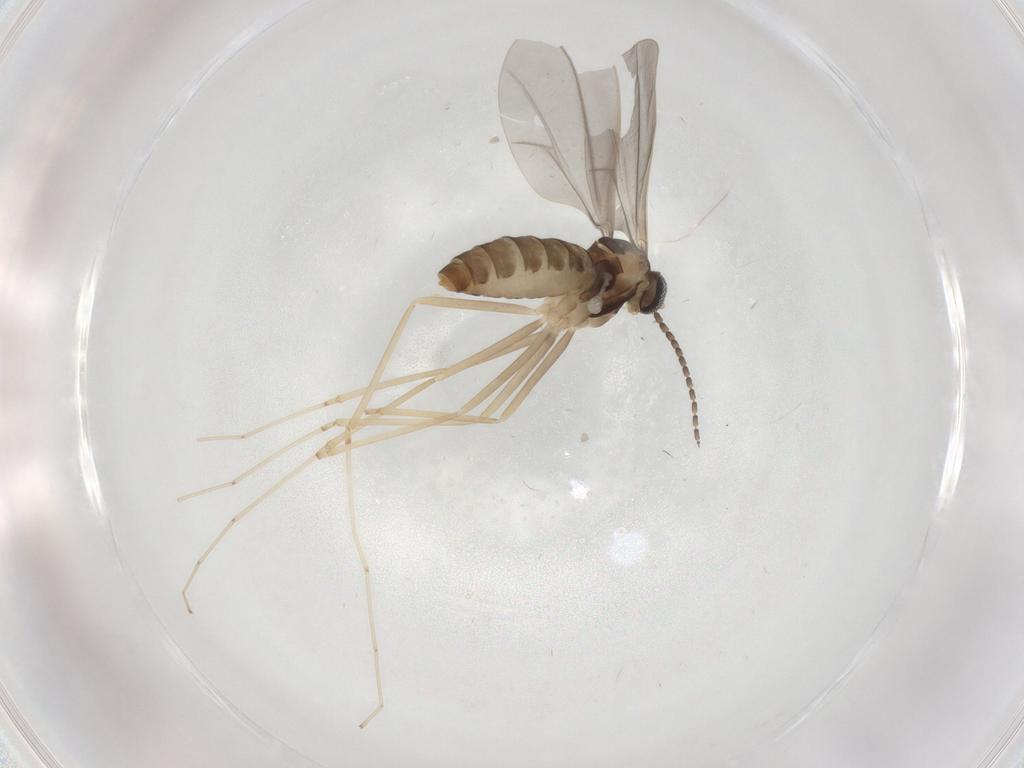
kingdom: Animalia
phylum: Arthropoda
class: Insecta
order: Diptera
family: Cecidomyiidae
